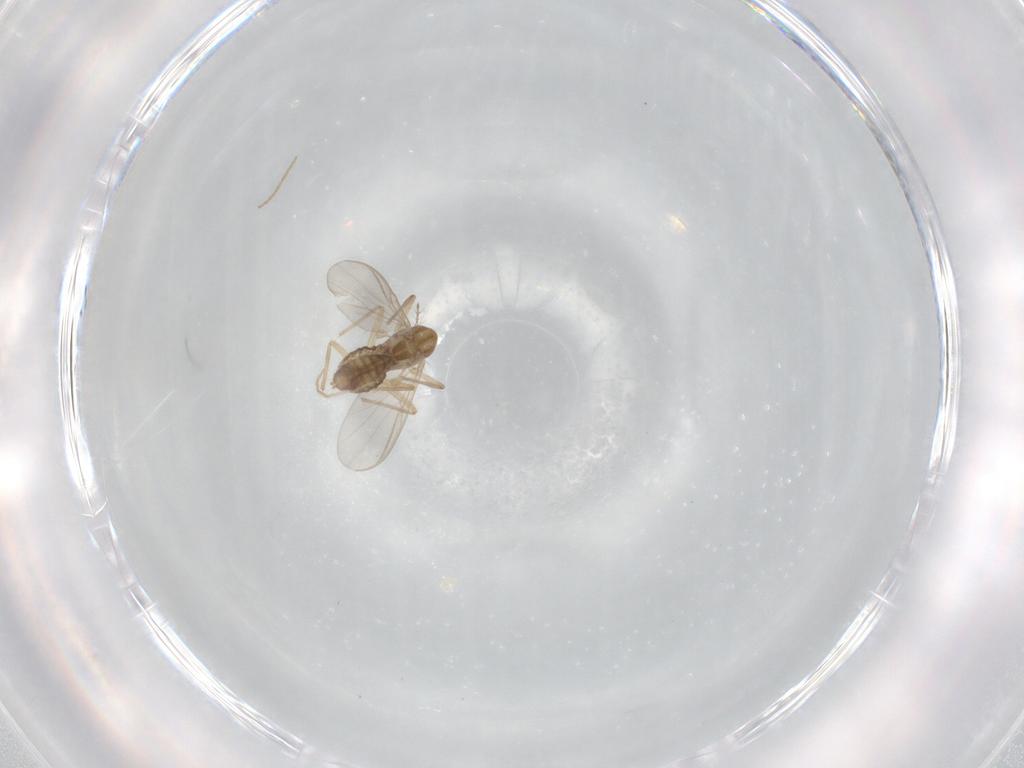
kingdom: Animalia
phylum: Arthropoda
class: Insecta
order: Diptera
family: Chironomidae
